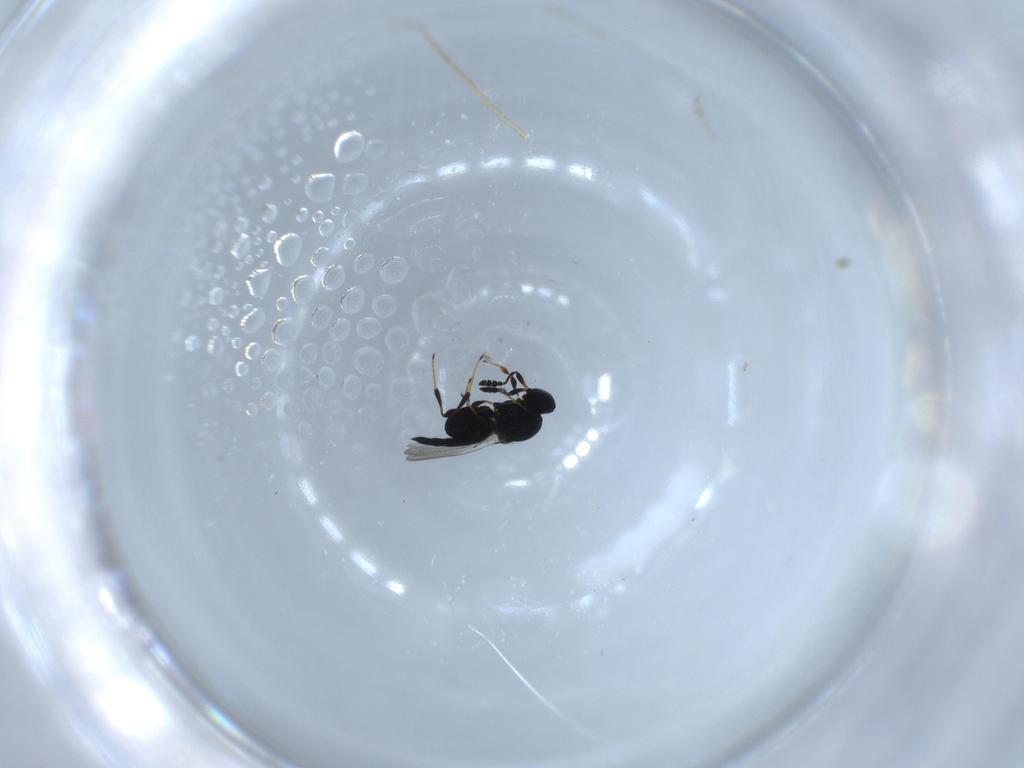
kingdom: Animalia
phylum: Arthropoda
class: Insecta
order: Hymenoptera
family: Platygastridae
